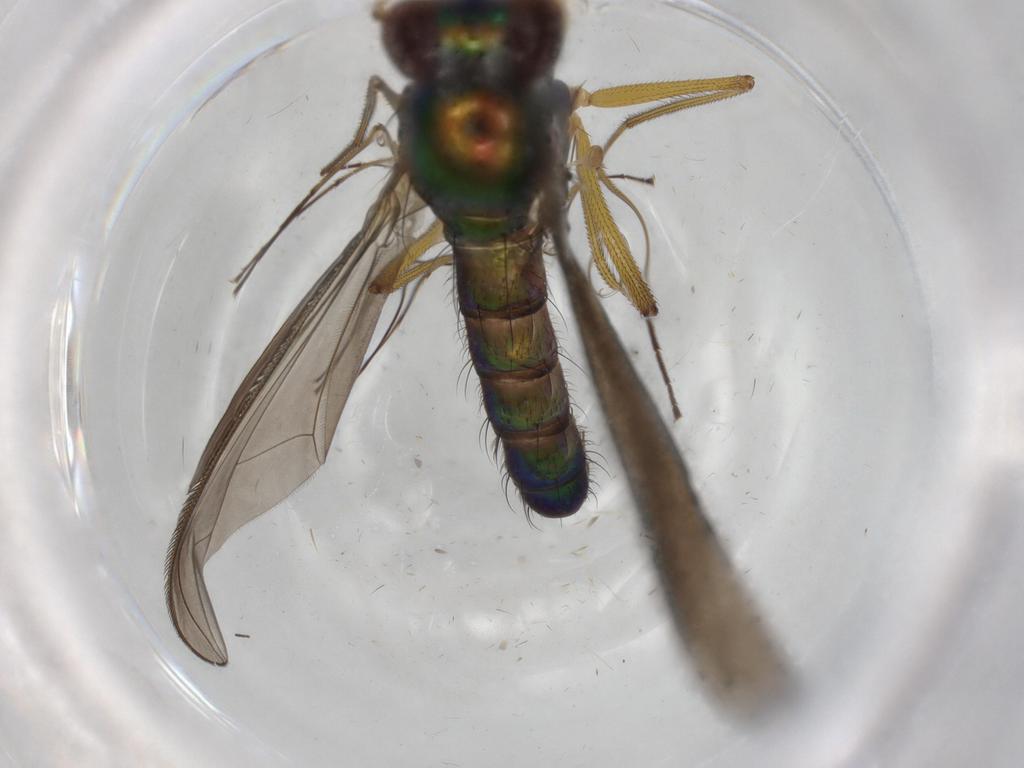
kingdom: Animalia
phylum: Arthropoda
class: Insecta
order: Diptera
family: Dolichopodidae
